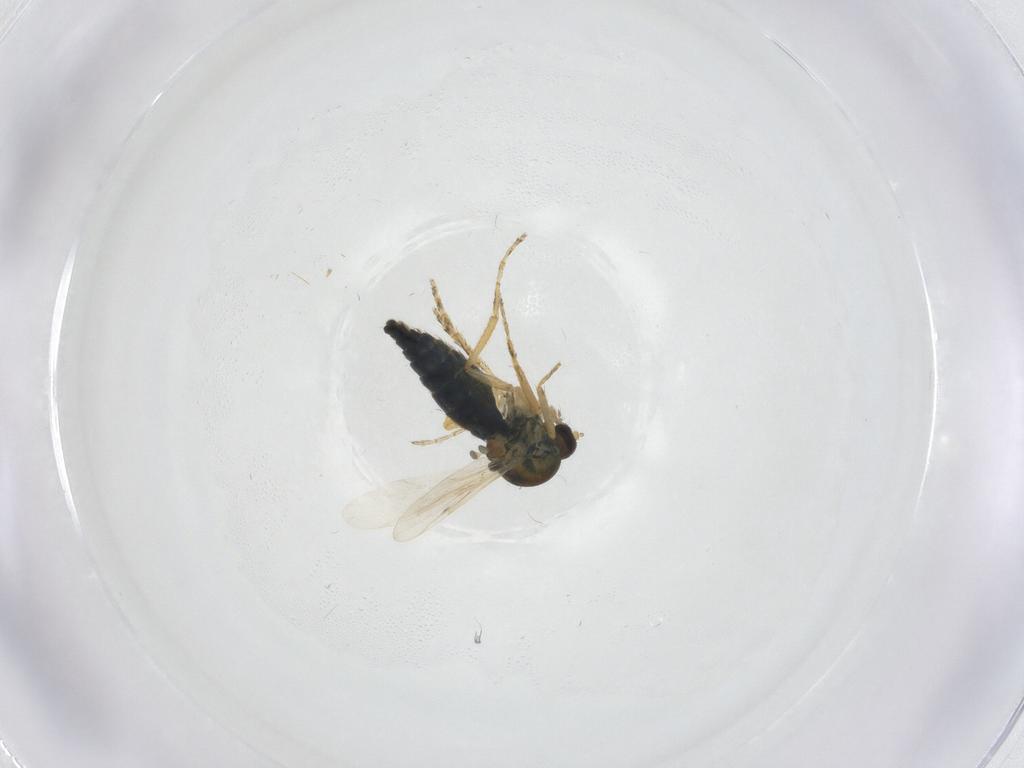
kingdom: Animalia
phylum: Arthropoda
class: Insecta
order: Diptera
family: Ceratopogonidae
